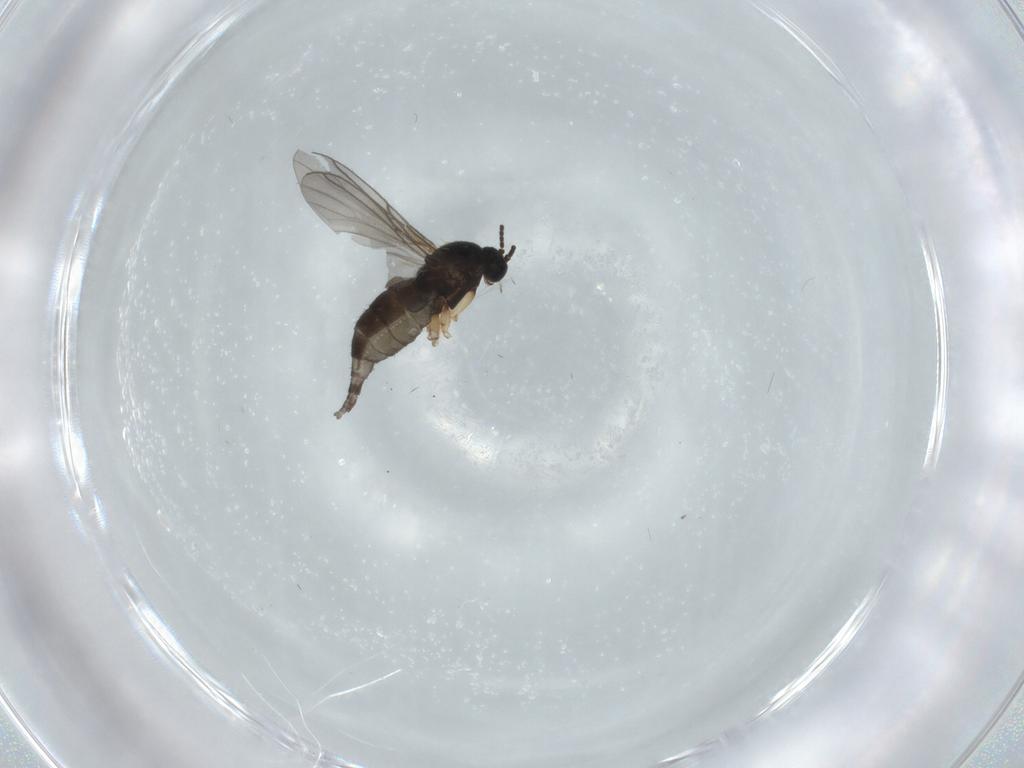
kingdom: Animalia
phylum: Arthropoda
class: Insecta
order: Diptera
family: Sciaridae
